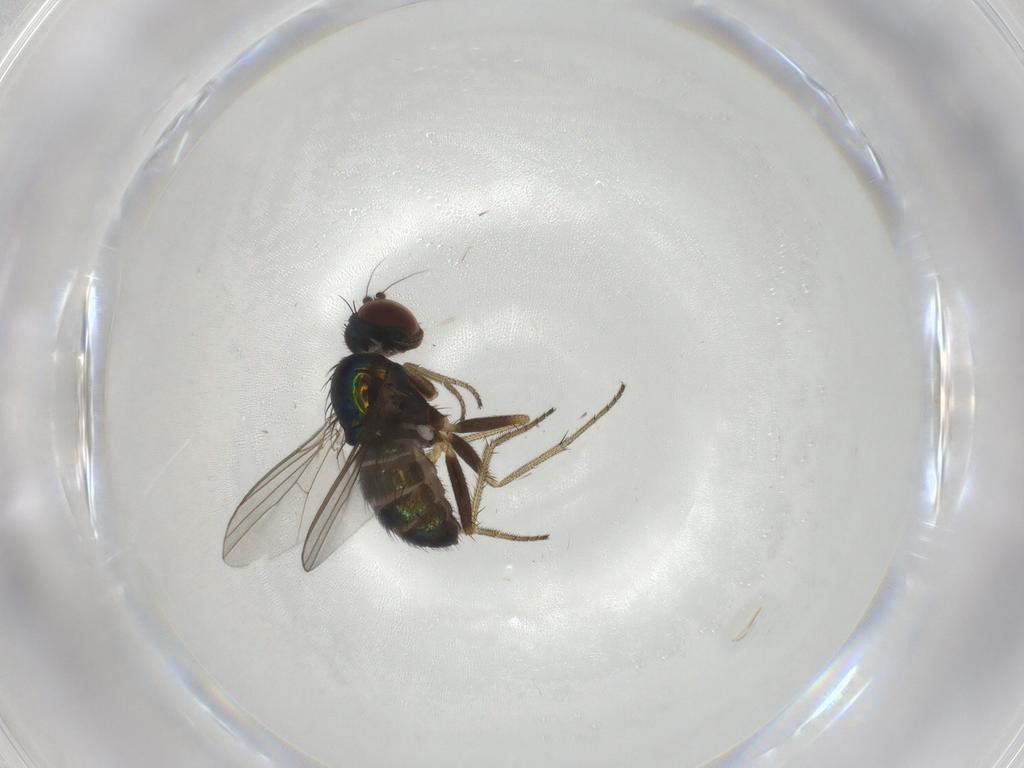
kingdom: Animalia
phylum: Arthropoda
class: Insecta
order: Diptera
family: Dolichopodidae
